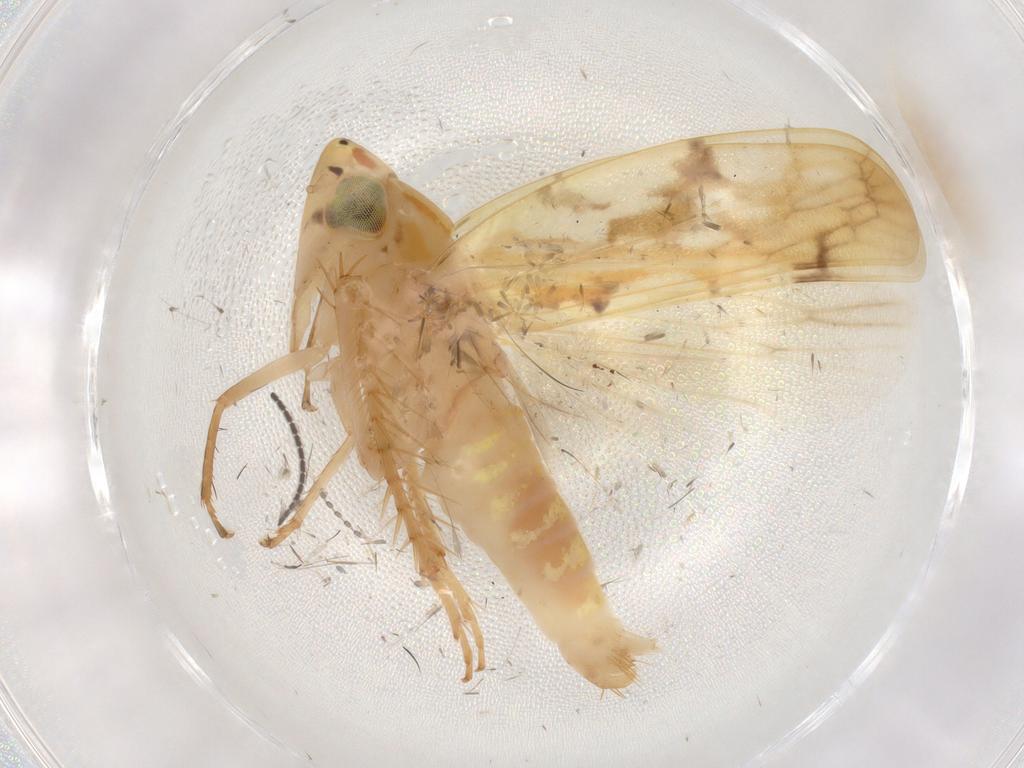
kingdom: Animalia
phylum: Arthropoda
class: Insecta
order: Hemiptera
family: Cicadellidae
